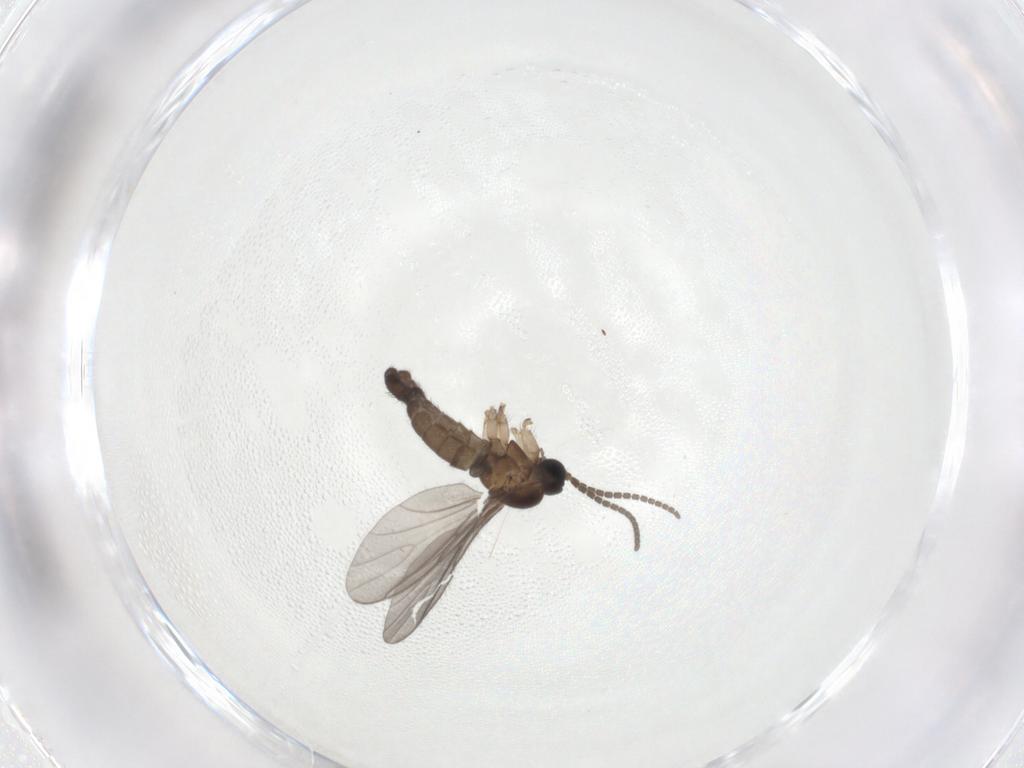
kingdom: Animalia
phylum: Arthropoda
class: Insecta
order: Diptera
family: Sciaridae
